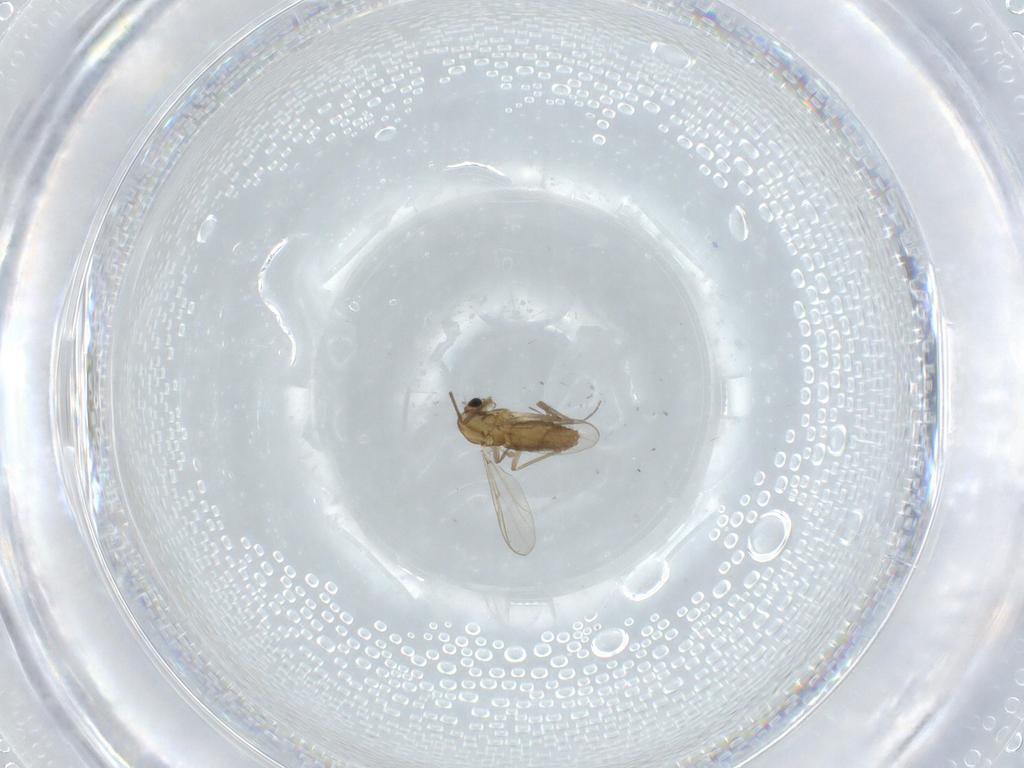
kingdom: Animalia
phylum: Arthropoda
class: Insecta
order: Diptera
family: Chironomidae
